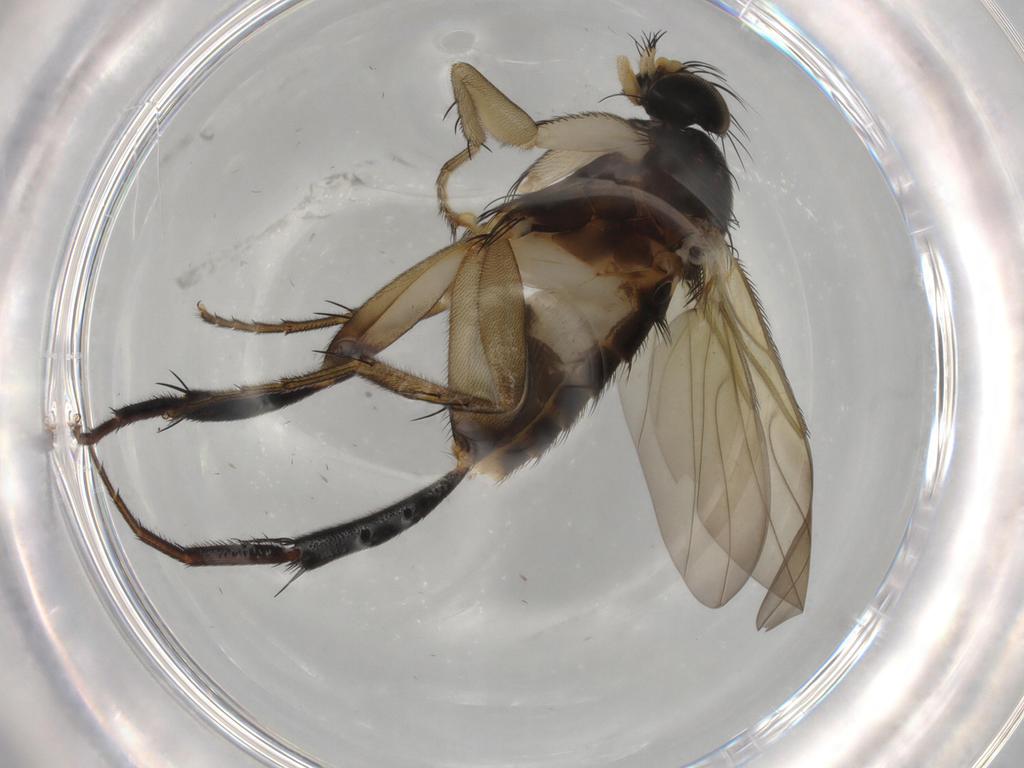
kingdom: Animalia
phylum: Arthropoda
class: Insecta
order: Diptera
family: Phoridae
